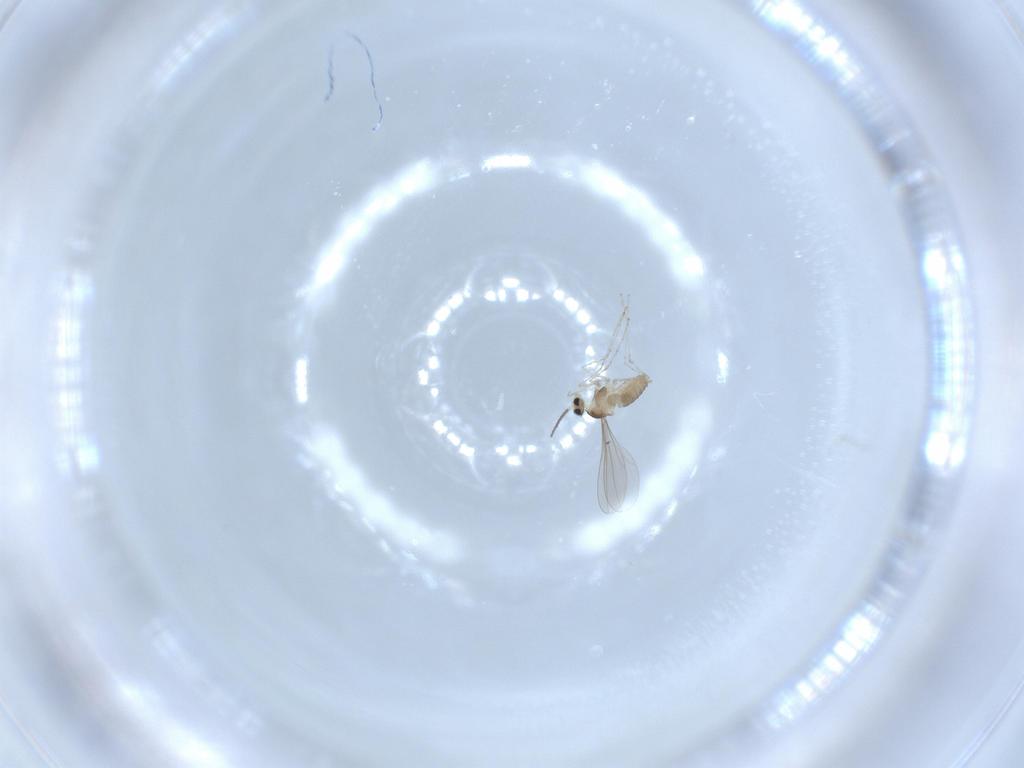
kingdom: Animalia
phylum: Arthropoda
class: Insecta
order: Diptera
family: Cecidomyiidae
